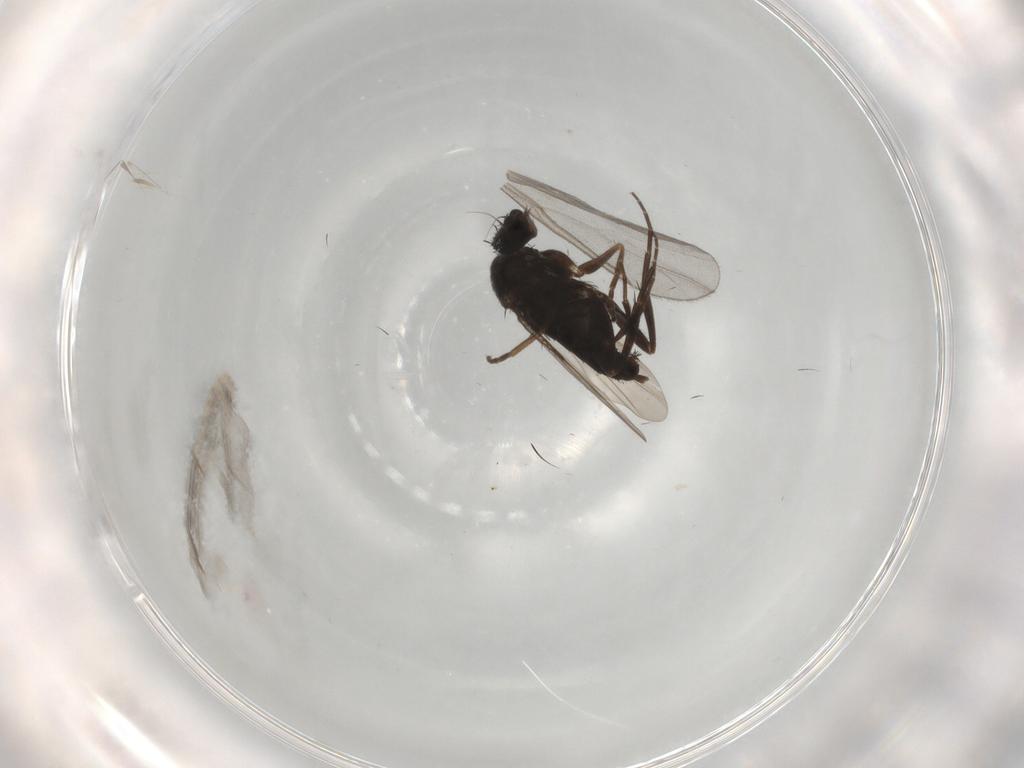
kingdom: Animalia
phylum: Arthropoda
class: Insecta
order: Diptera
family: Phoridae
